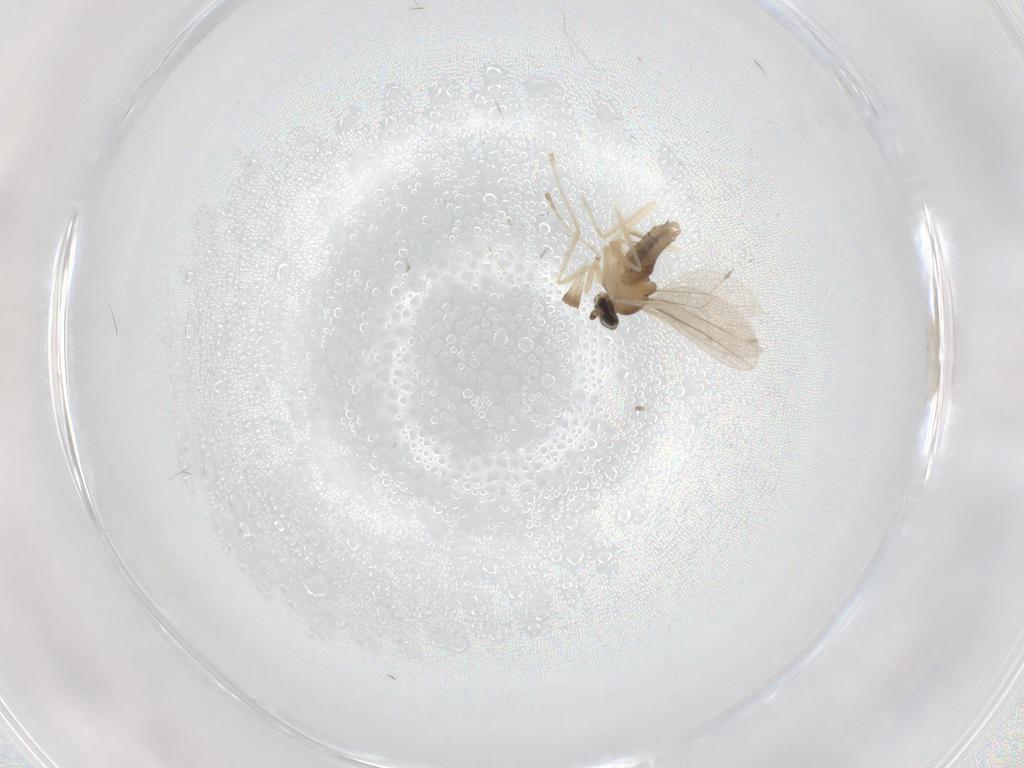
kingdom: Animalia
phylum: Arthropoda
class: Insecta
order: Diptera
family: Cecidomyiidae
